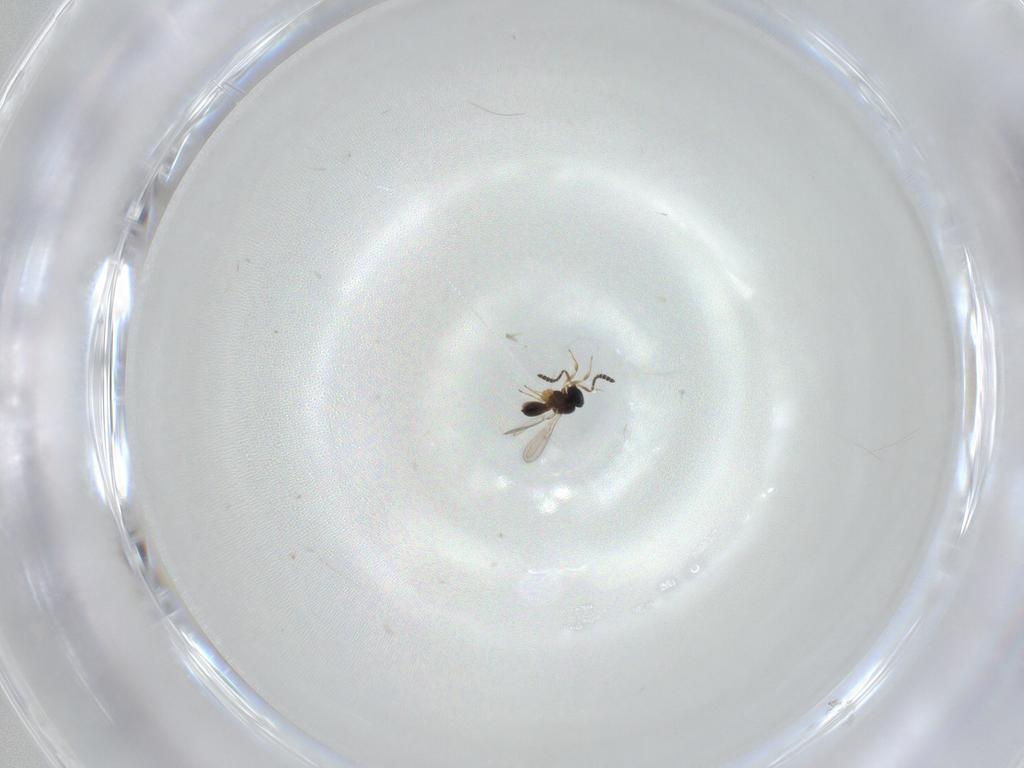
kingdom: Animalia
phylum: Arthropoda
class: Insecta
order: Hymenoptera
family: Scelionidae
